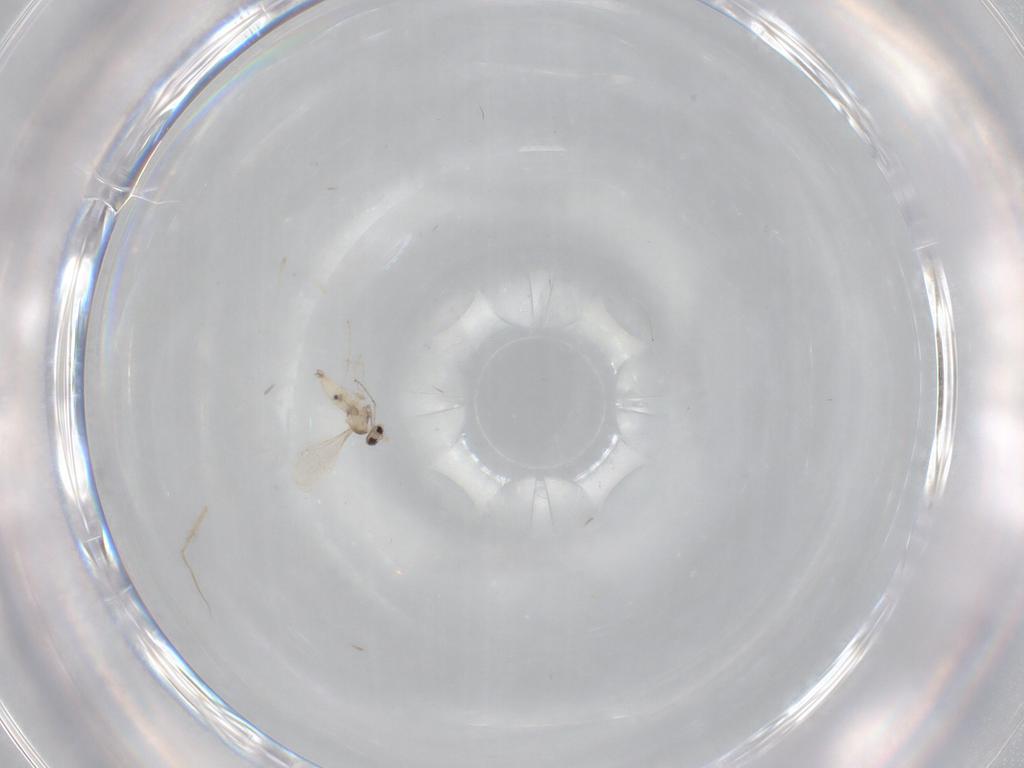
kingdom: Animalia
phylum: Arthropoda
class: Insecta
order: Diptera
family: Cecidomyiidae
